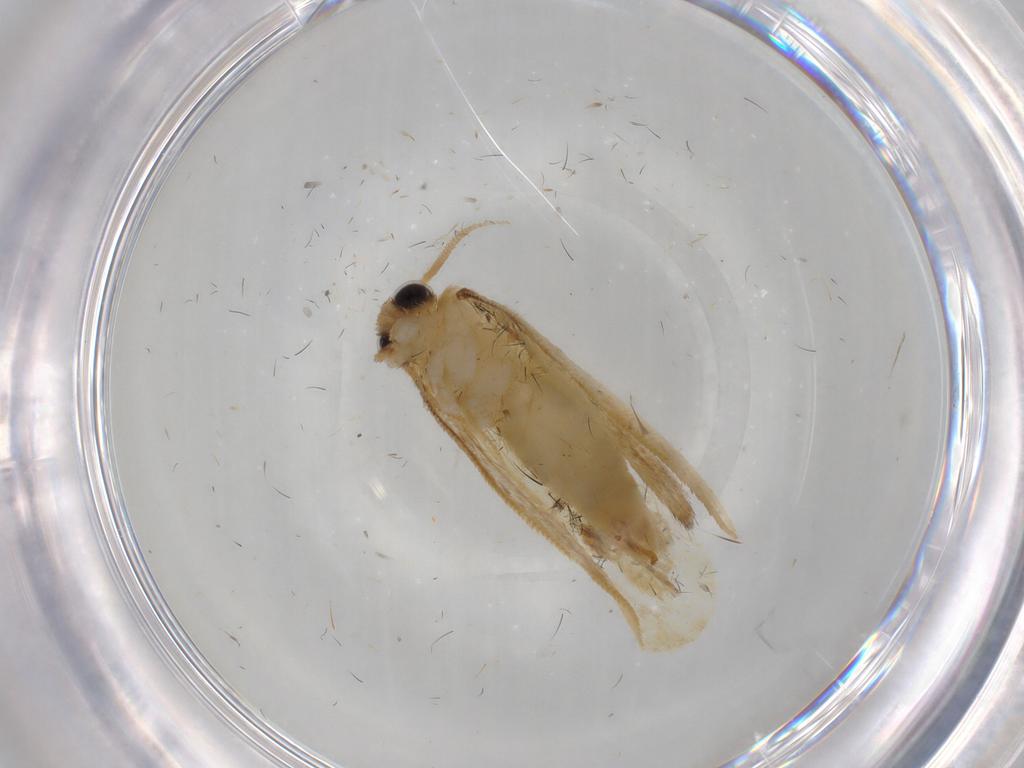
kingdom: Animalia
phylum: Arthropoda
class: Insecta
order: Lepidoptera
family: Psychidae
